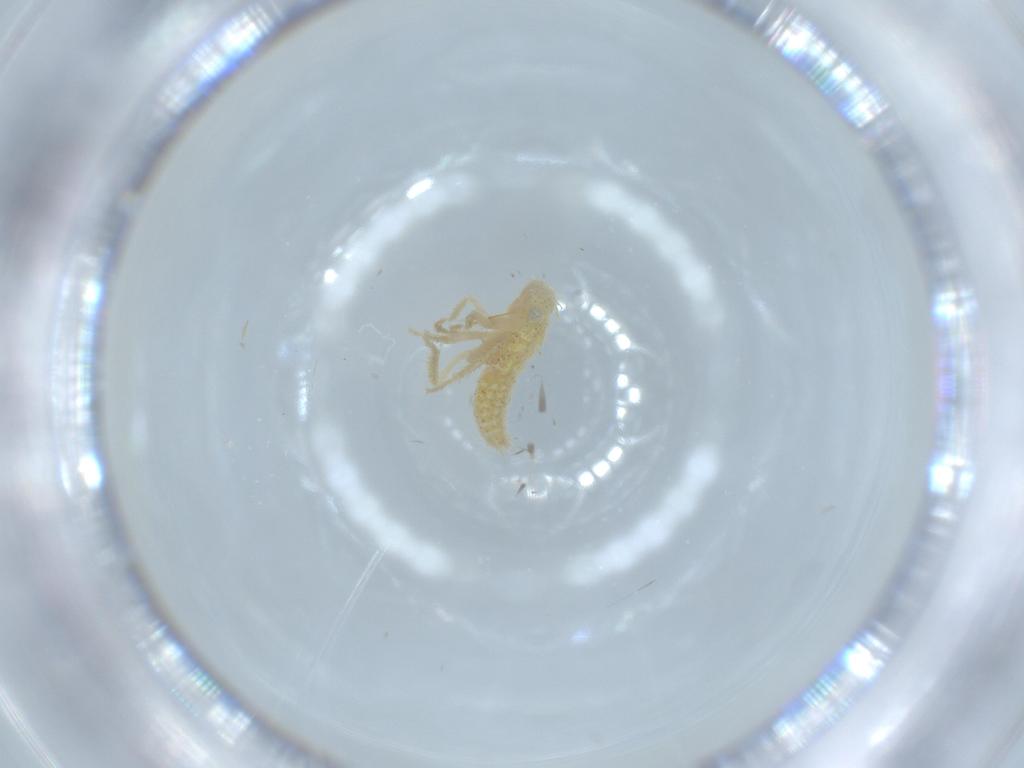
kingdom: Animalia
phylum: Arthropoda
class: Insecta
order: Hemiptera
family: Cicadellidae
